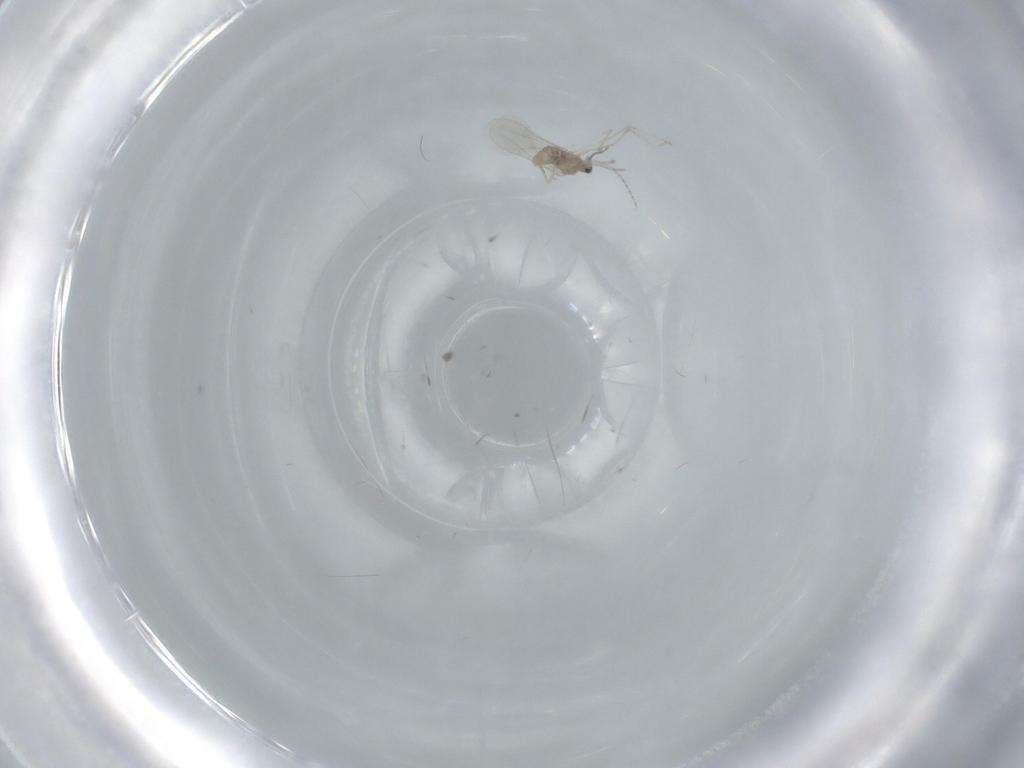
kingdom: Animalia
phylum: Arthropoda
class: Insecta
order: Diptera
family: Cecidomyiidae
